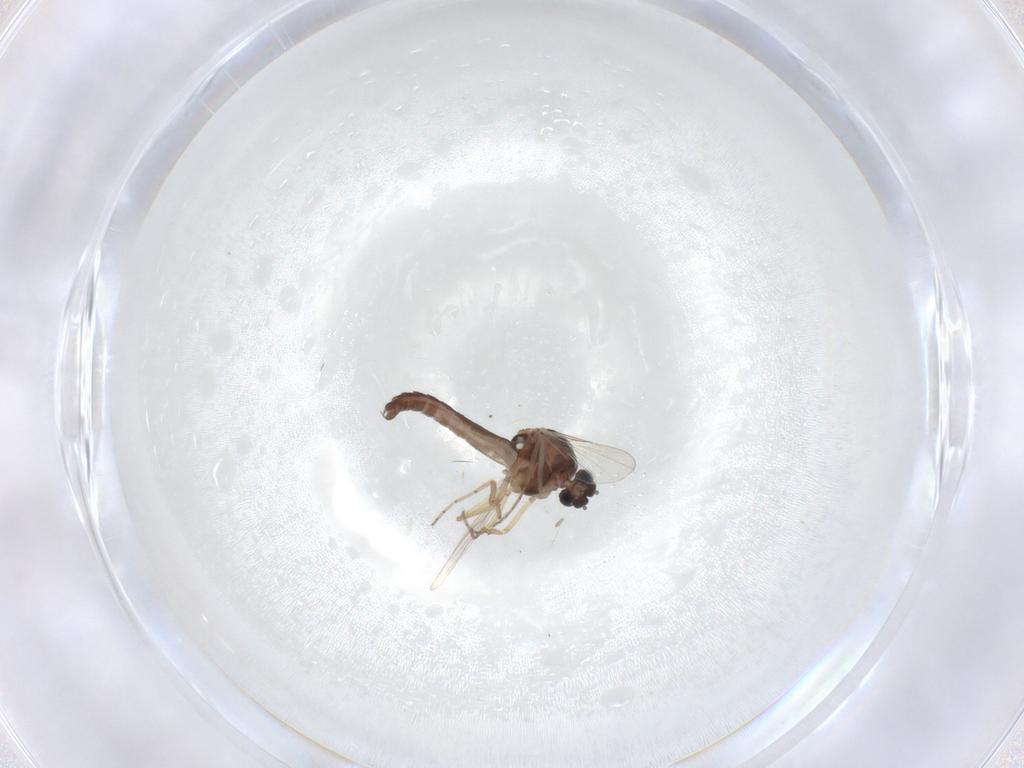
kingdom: Animalia
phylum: Arthropoda
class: Insecta
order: Diptera
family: Ceratopogonidae
